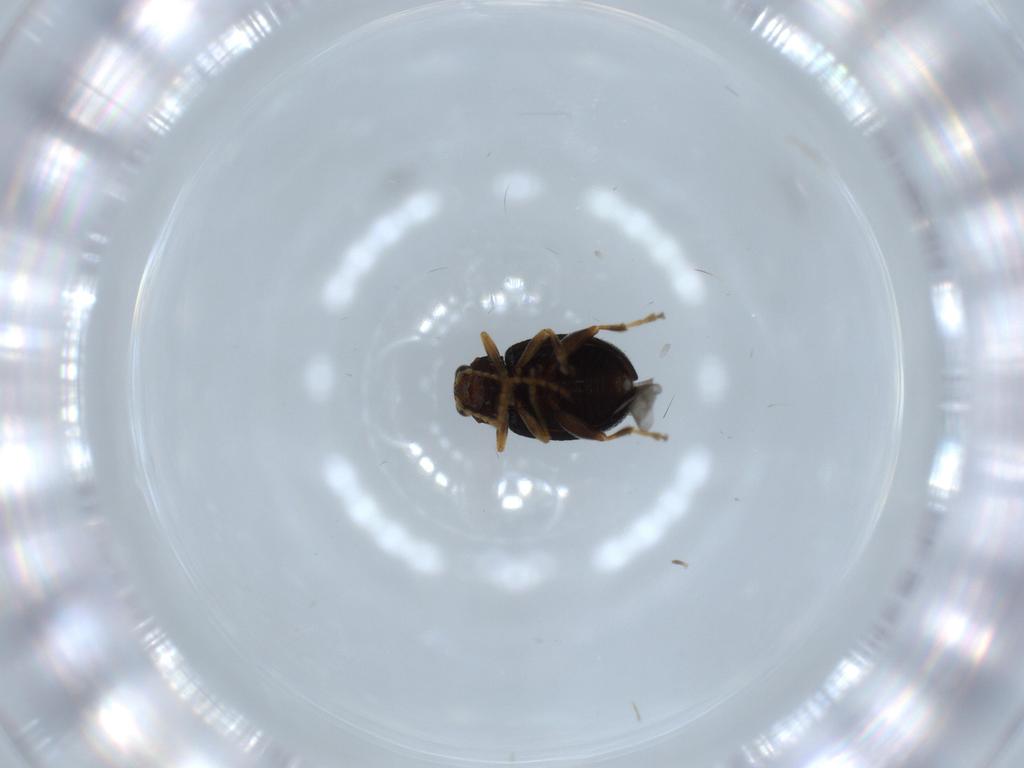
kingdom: Animalia
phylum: Arthropoda
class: Insecta
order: Coleoptera
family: Chrysomelidae
